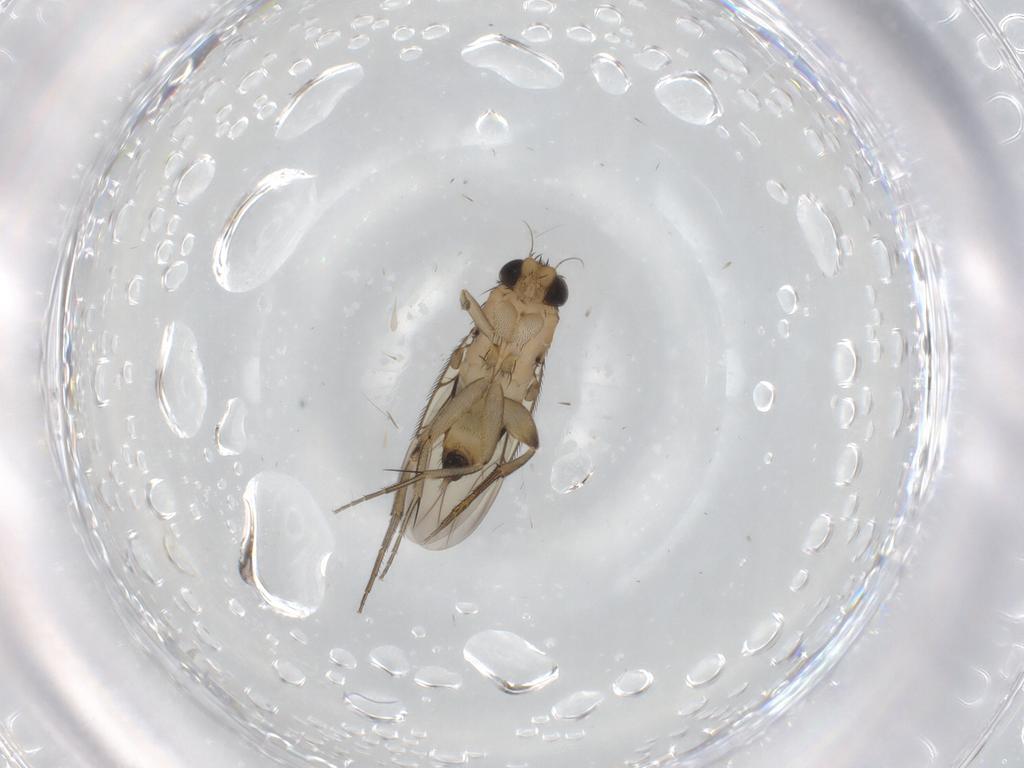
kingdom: Animalia
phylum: Arthropoda
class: Insecta
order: Diptera
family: Phoridae
